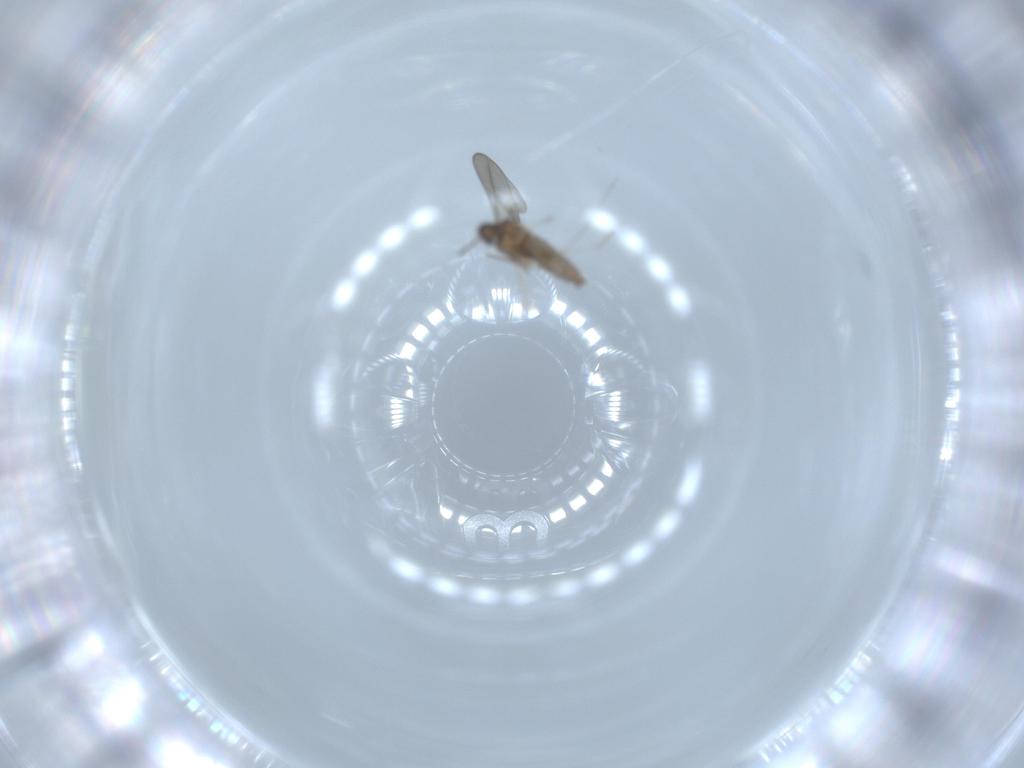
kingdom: Animalia
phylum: Arthropoda
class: Insecta
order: Diptera
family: Cecidomyiidae
